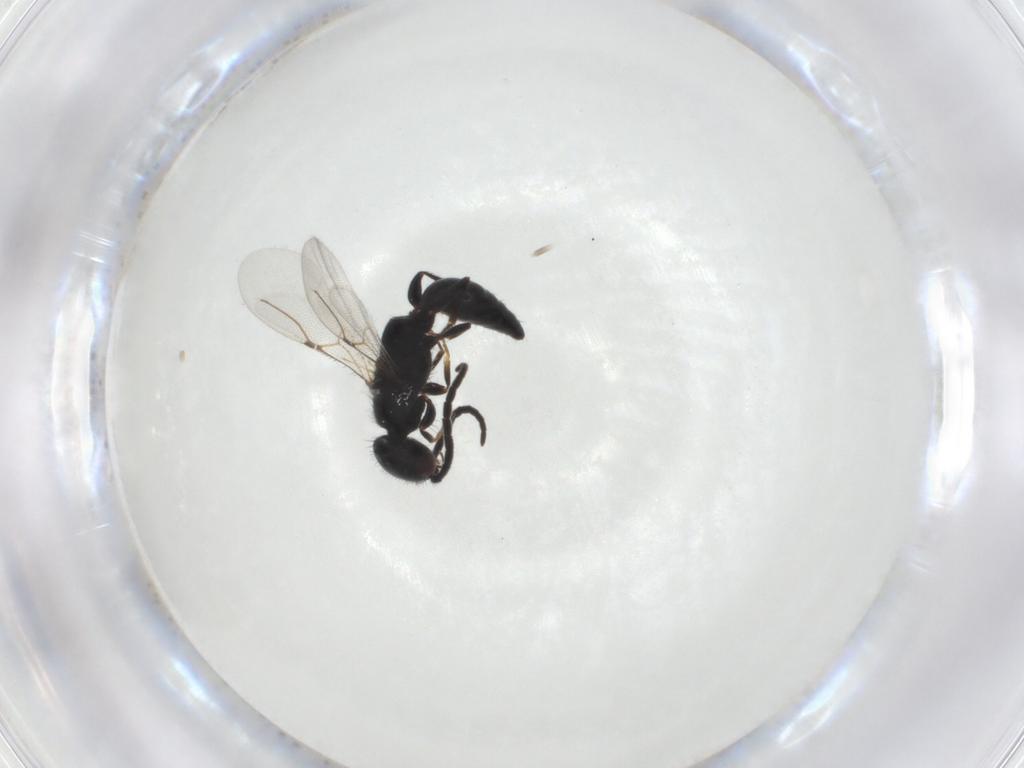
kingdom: Animalia
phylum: Arthropoda
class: Insecta
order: Hymenoptera
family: Bethylidae
